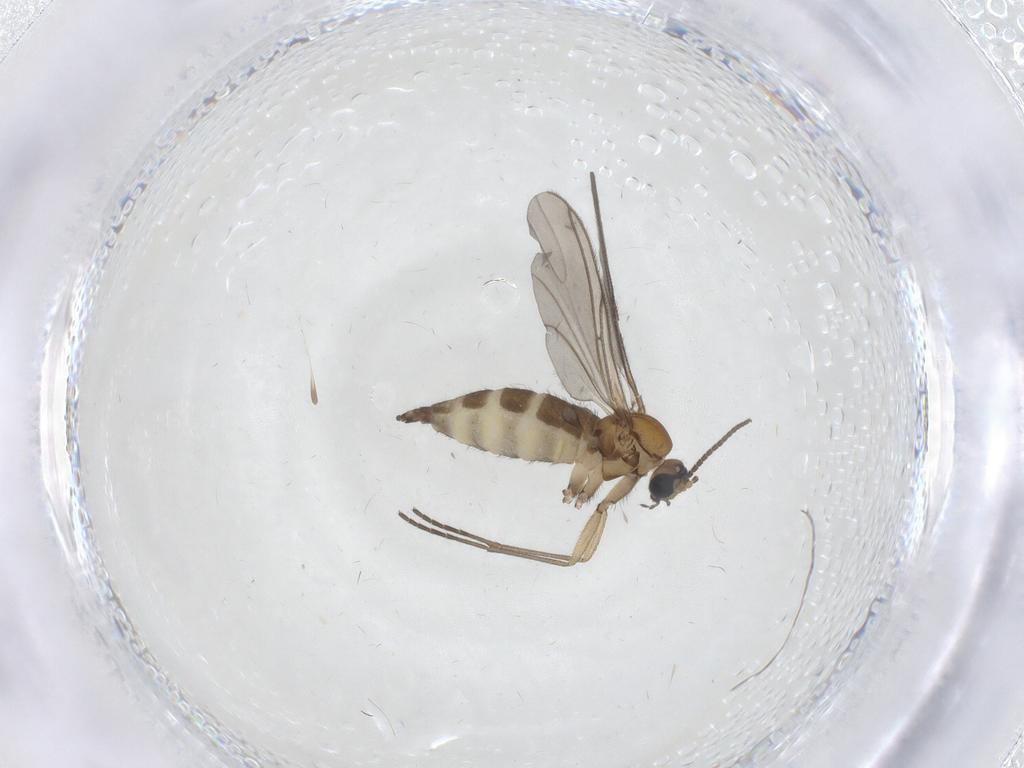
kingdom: Animalia
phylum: Arthropoda
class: Insecta
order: Diptera
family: Sciaridae
